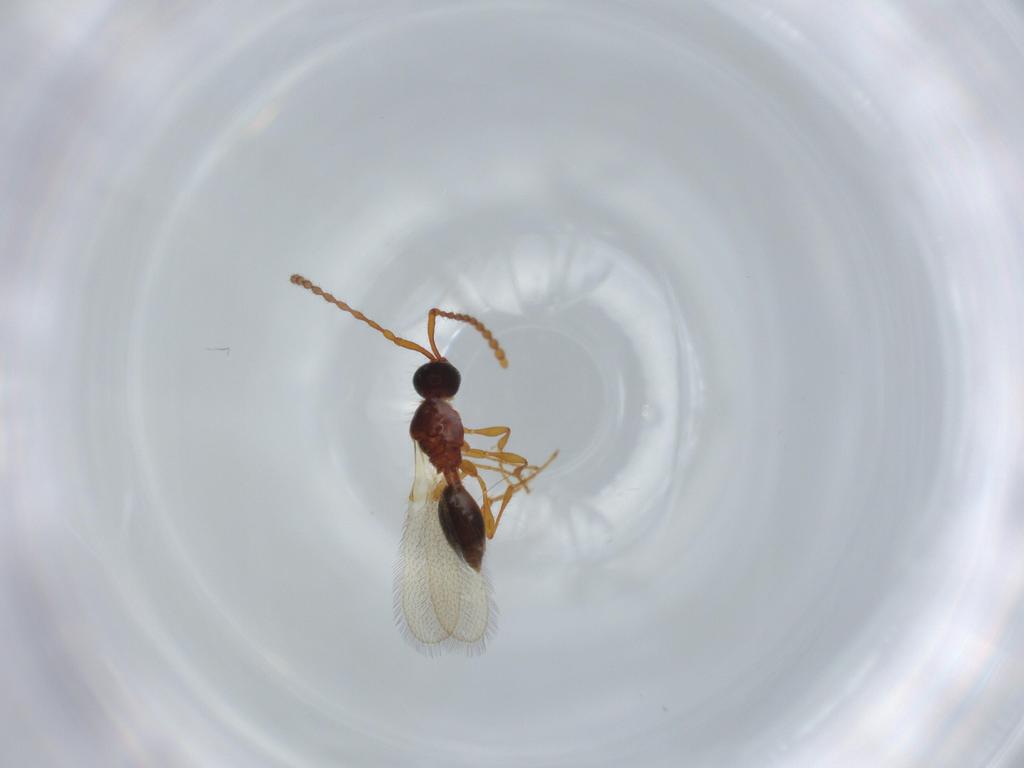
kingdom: Animalia
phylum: Arthropoda
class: Insecta
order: Hymenoptera
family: Diapriidae
